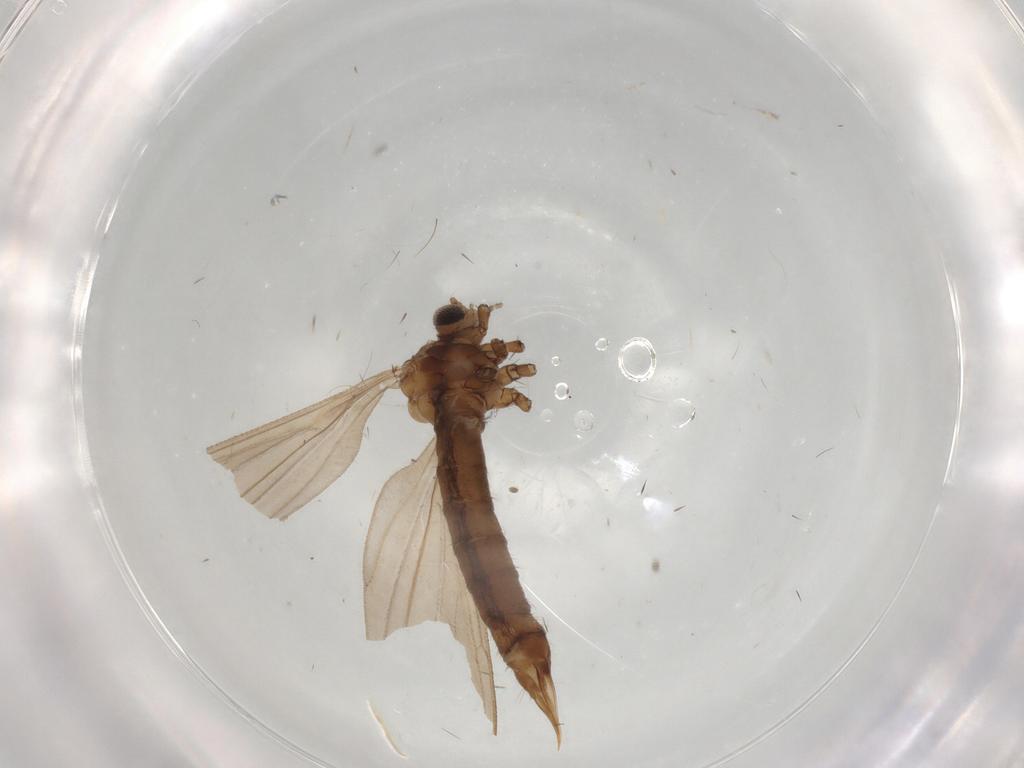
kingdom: Animalia
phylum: Arthropoda
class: Insecta
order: Diptera
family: Limoniidae
